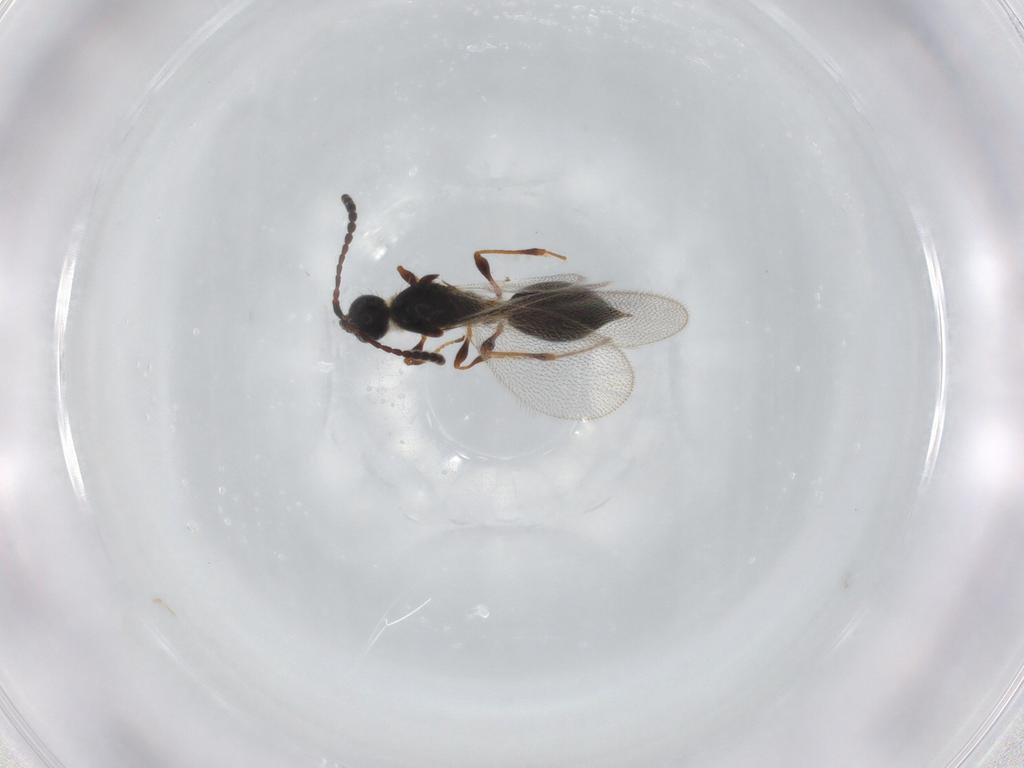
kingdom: Animalia
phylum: Arthropoda
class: Insecta
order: Hymenoptera
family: Diapriidae
